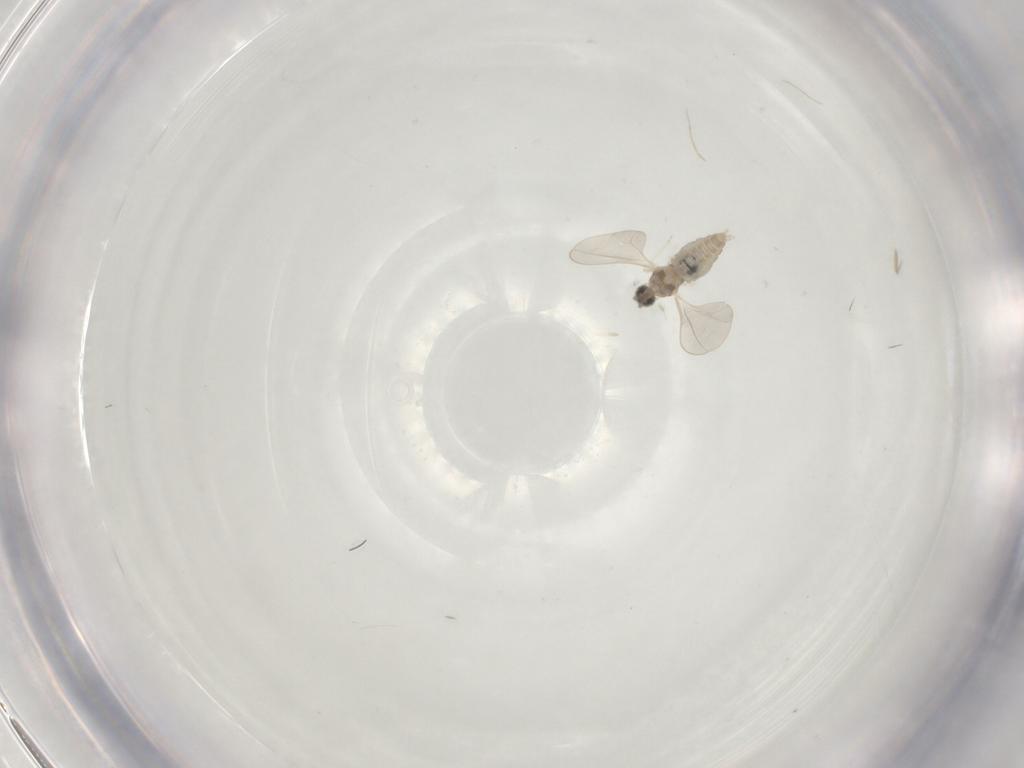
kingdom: Animalia
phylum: Arthropoda
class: Insecta
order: Diptera
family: Cecidomyiidae
